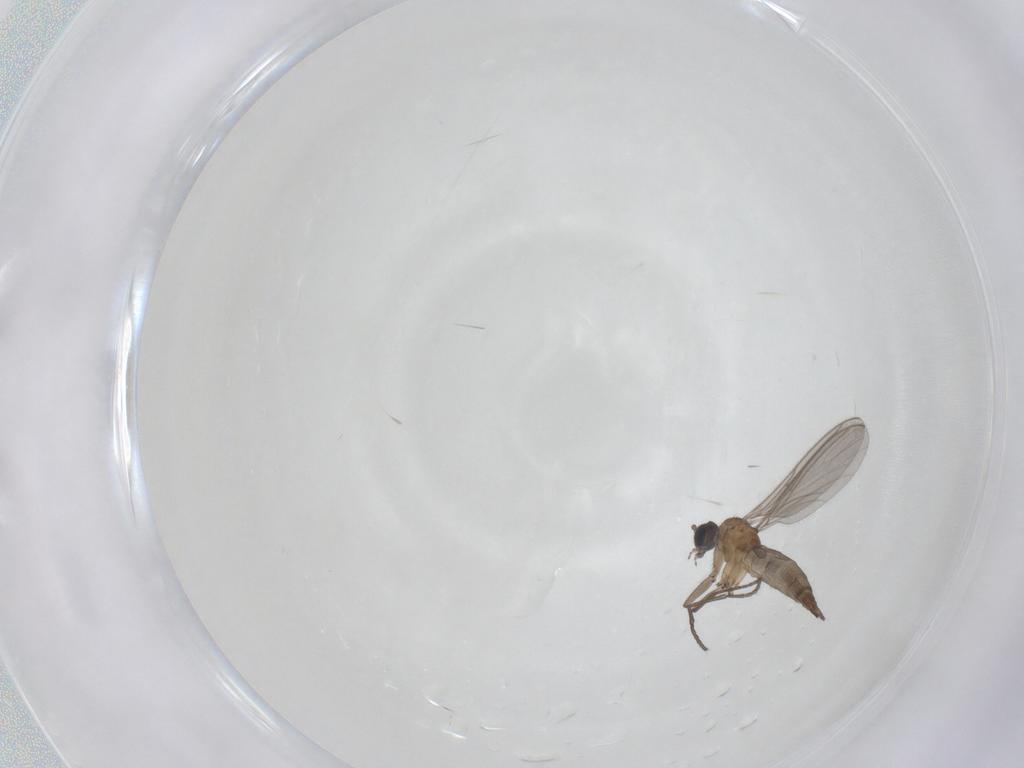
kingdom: Animalia
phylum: Arthropoda
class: Insecta
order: Diptera
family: Sciaridae
